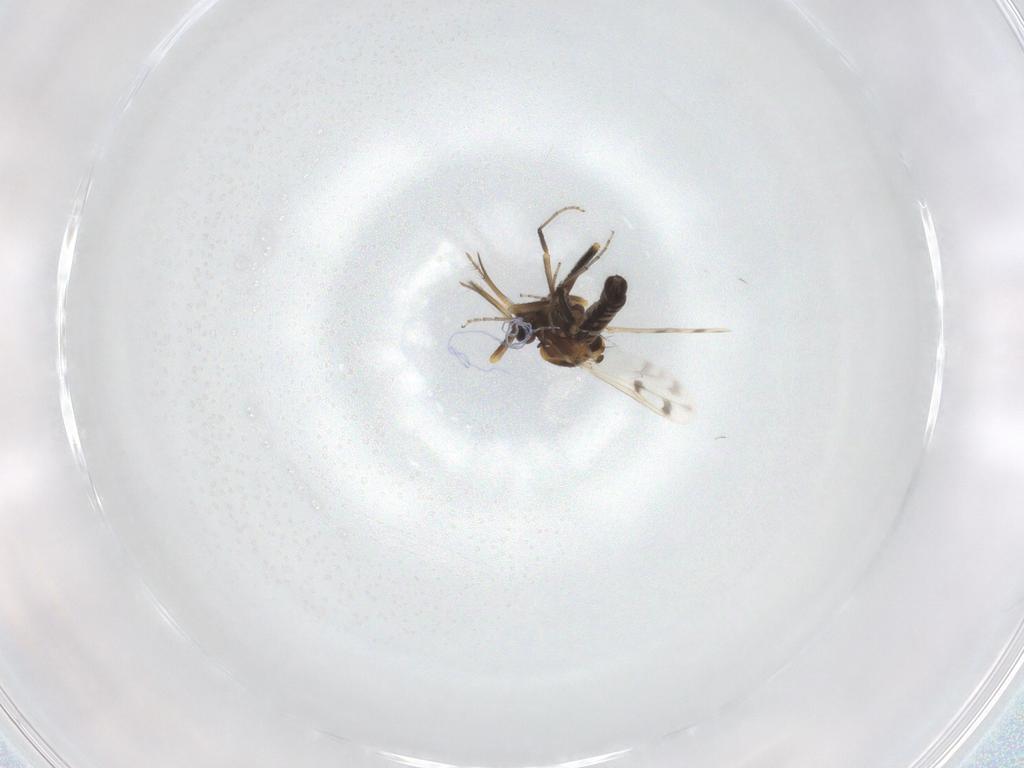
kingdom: Animalia
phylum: Arthropoda
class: Insecta
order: Diptera
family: Ceratopogonidae
